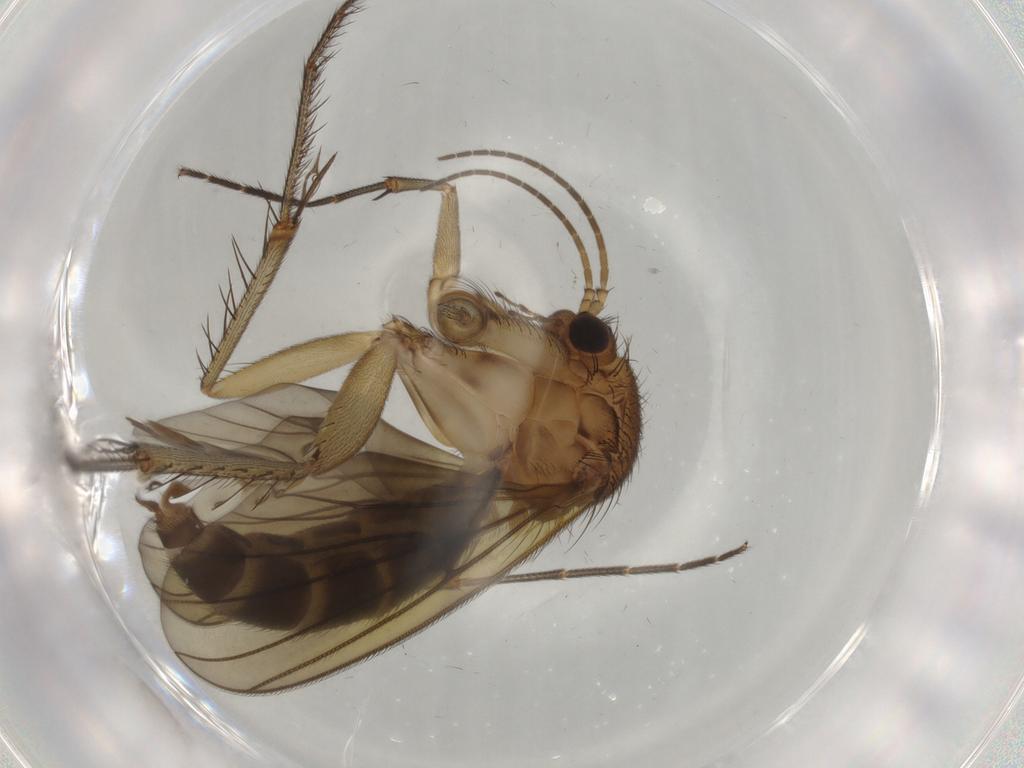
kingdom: Animalia
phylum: Arthropoda
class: Insecta
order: Diptera
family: Mycetophilidae
